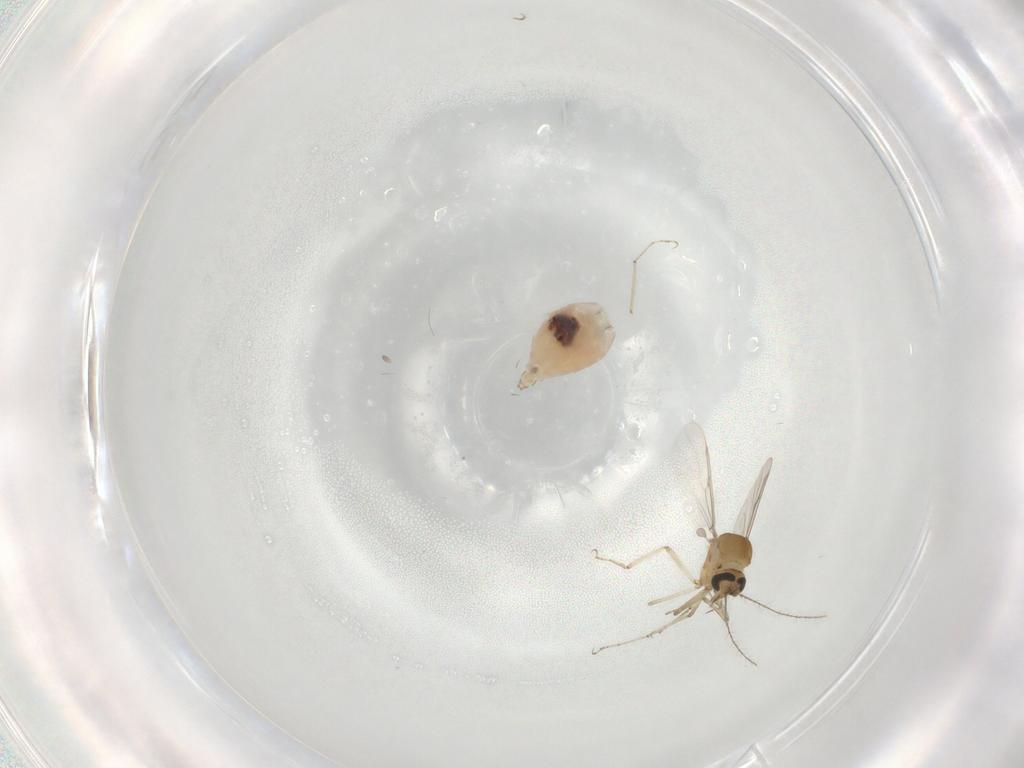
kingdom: Animalia
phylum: Arthropoda
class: Insecta
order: Diptera
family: Ceratopogonidae
